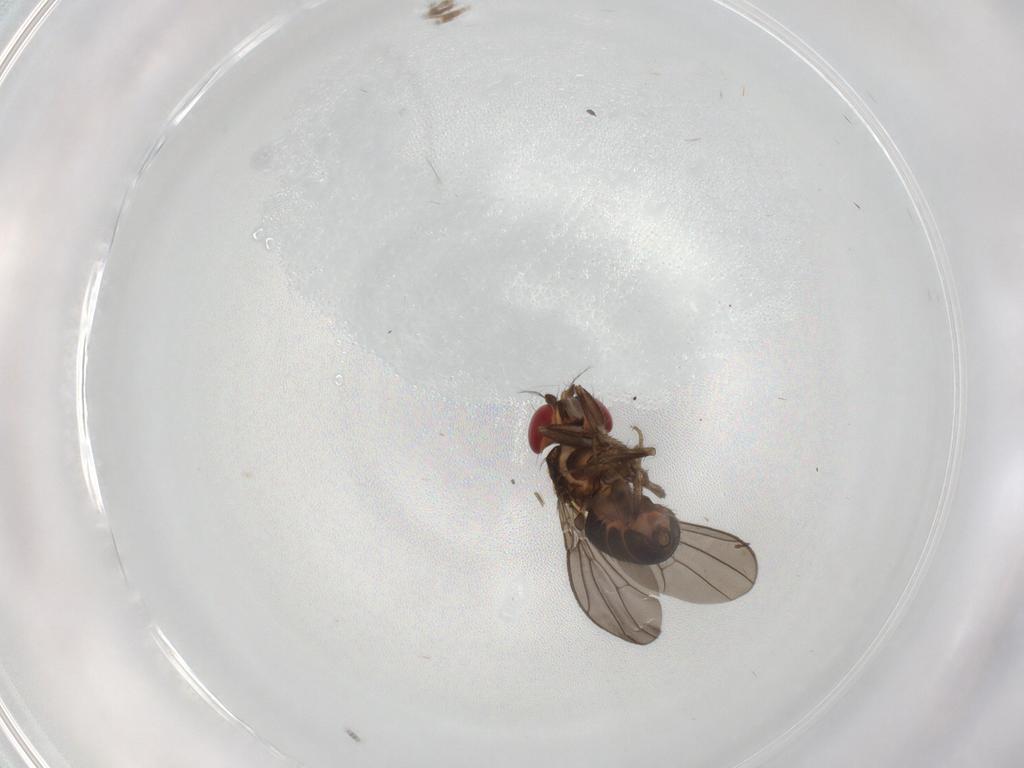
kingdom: Animalia
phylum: Arthropoda
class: Insecta
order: Diptera
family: Drosophilidae
